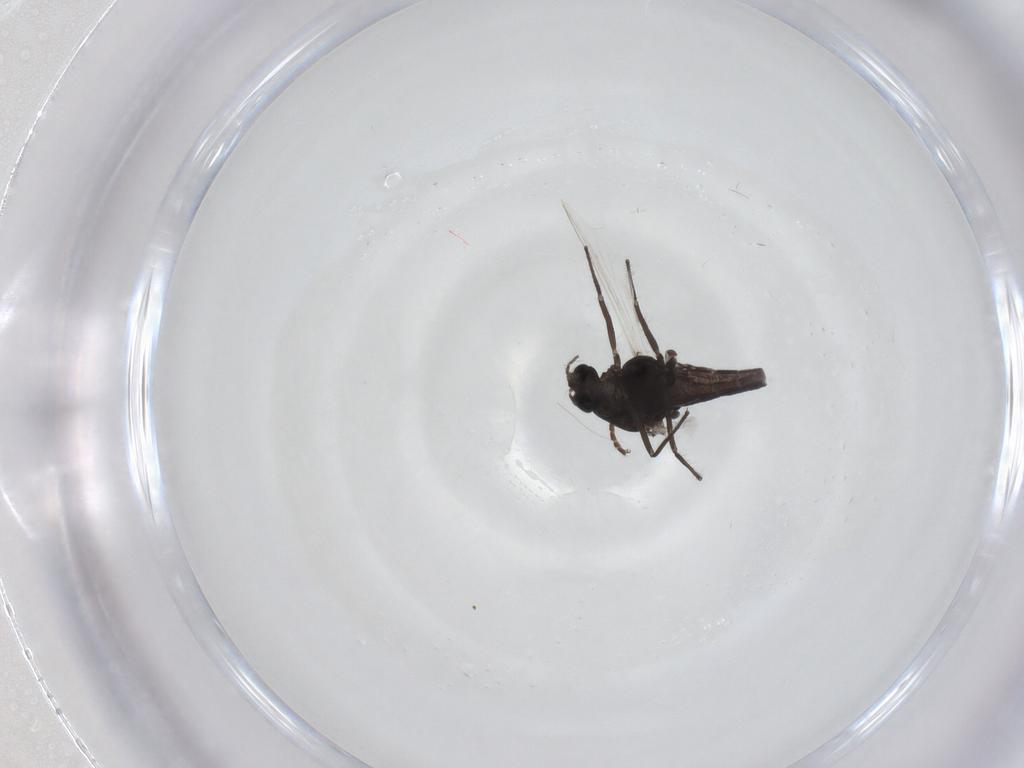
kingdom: Animalia
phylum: Arthropoda
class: Insecta
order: Diptera
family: Chironomidae
